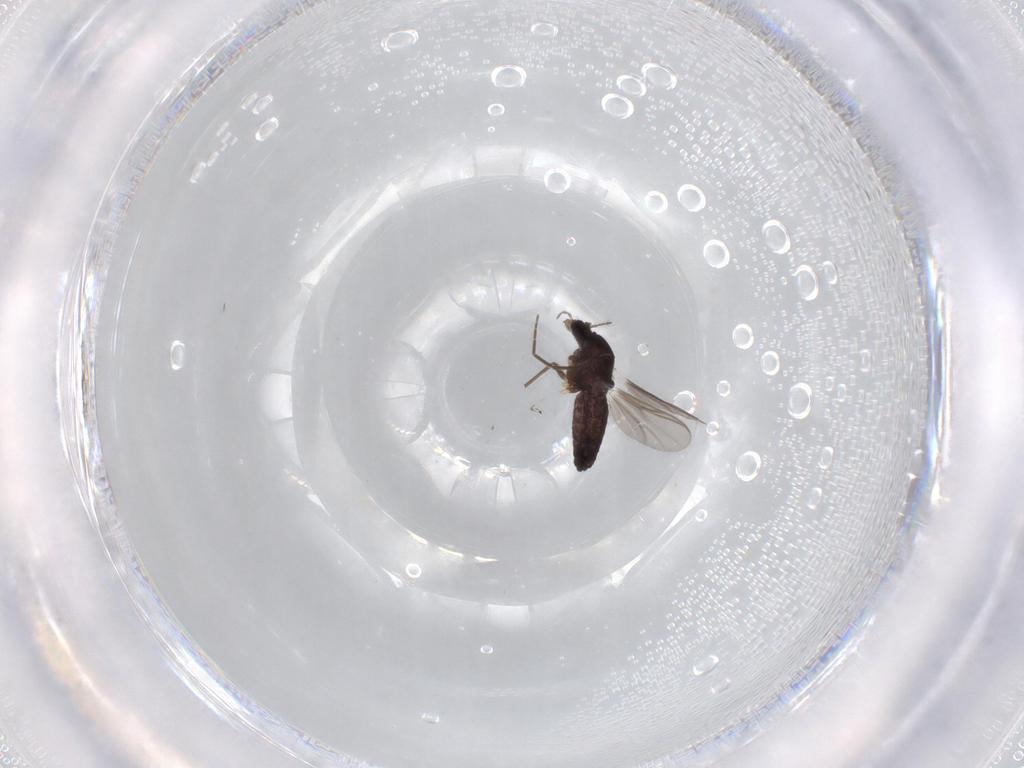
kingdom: Animalia
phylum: Arthropoda
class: Insecta
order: Diptera
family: Chironomidae
